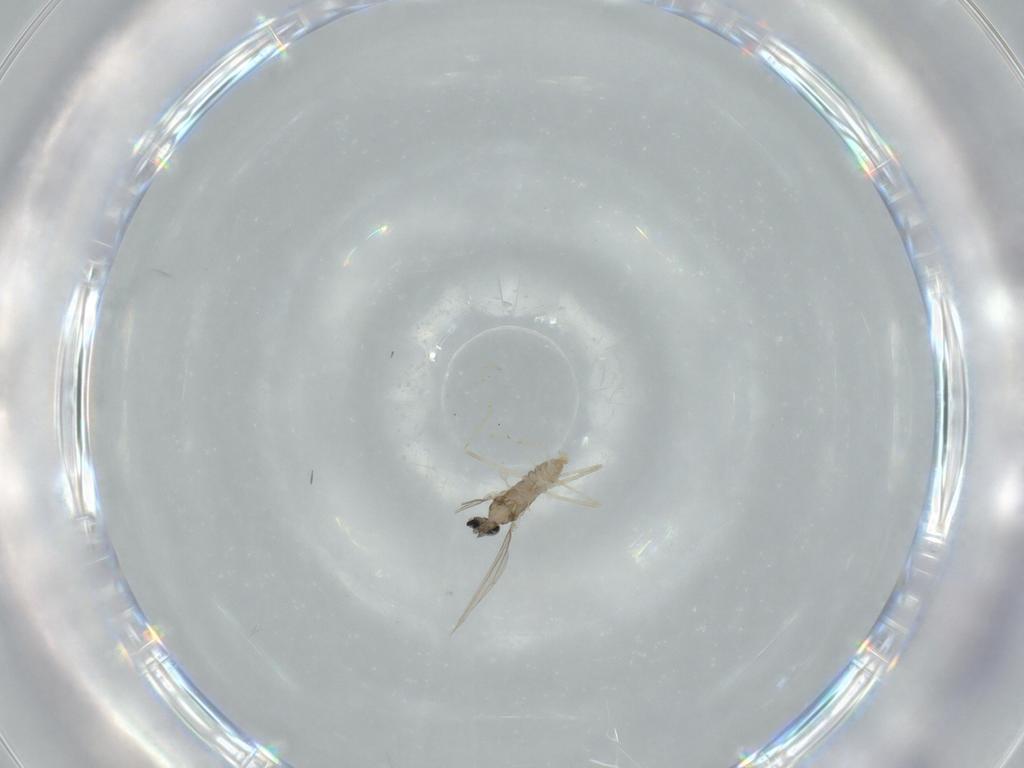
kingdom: Animalia
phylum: Arthropoda
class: Insecta
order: Diptera
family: Cecidomyiidae
